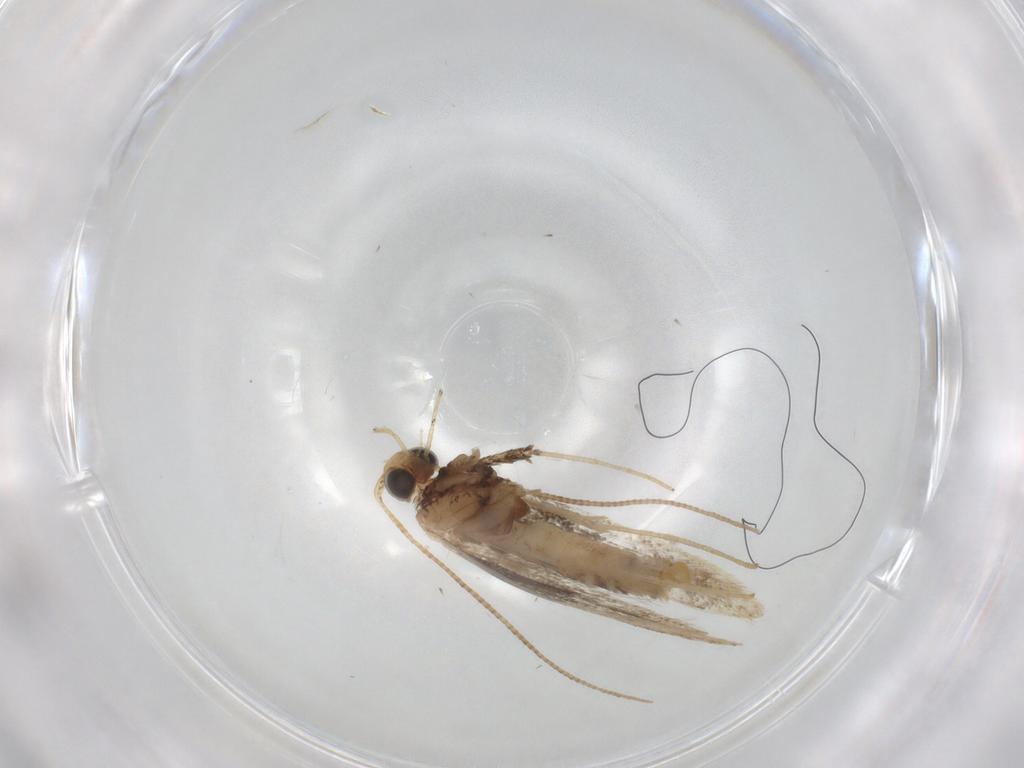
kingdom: Animalia
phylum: Arthropoda
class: Insecta
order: Lepidoptera
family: Gracillariidae
